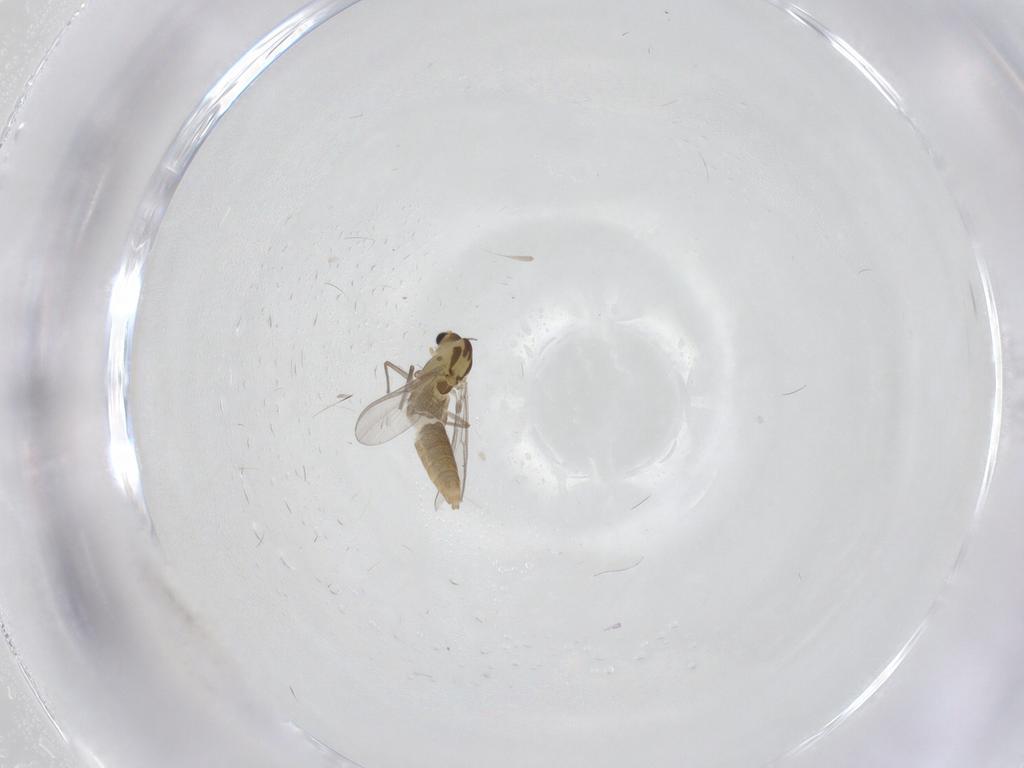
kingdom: Animalia
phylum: Arthropoda
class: Insecta
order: Diptera
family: Chironomidae
